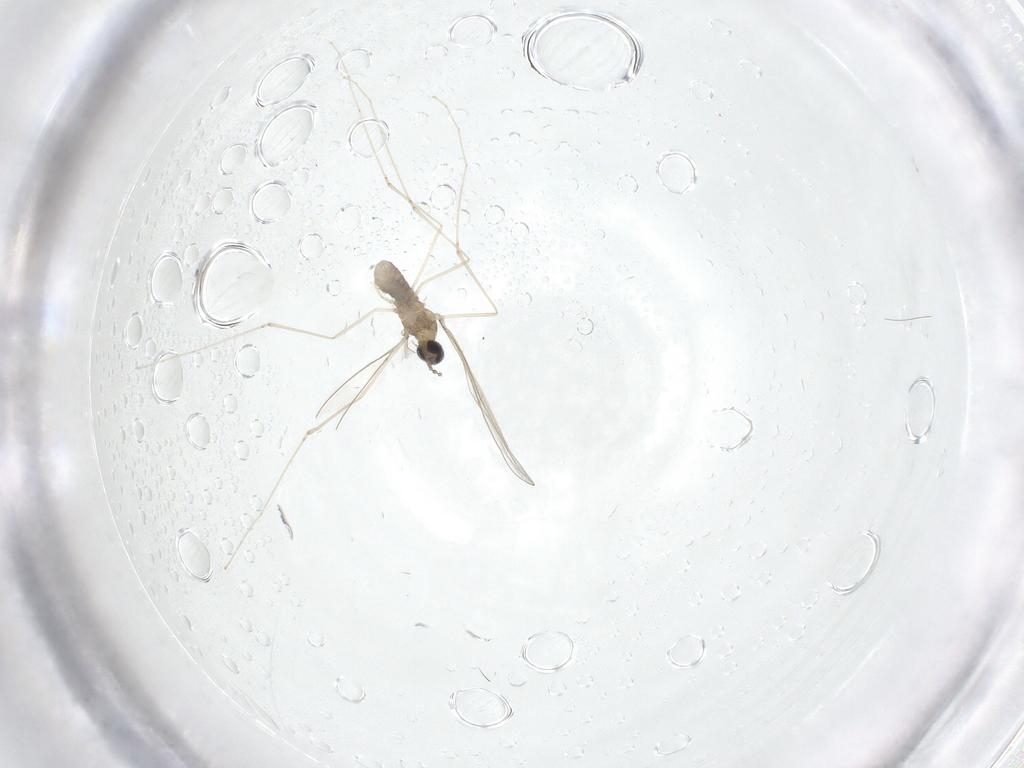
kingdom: Animalia
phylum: Arthropoda
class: Insecta
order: Diptera
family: Cecidomyiidae
